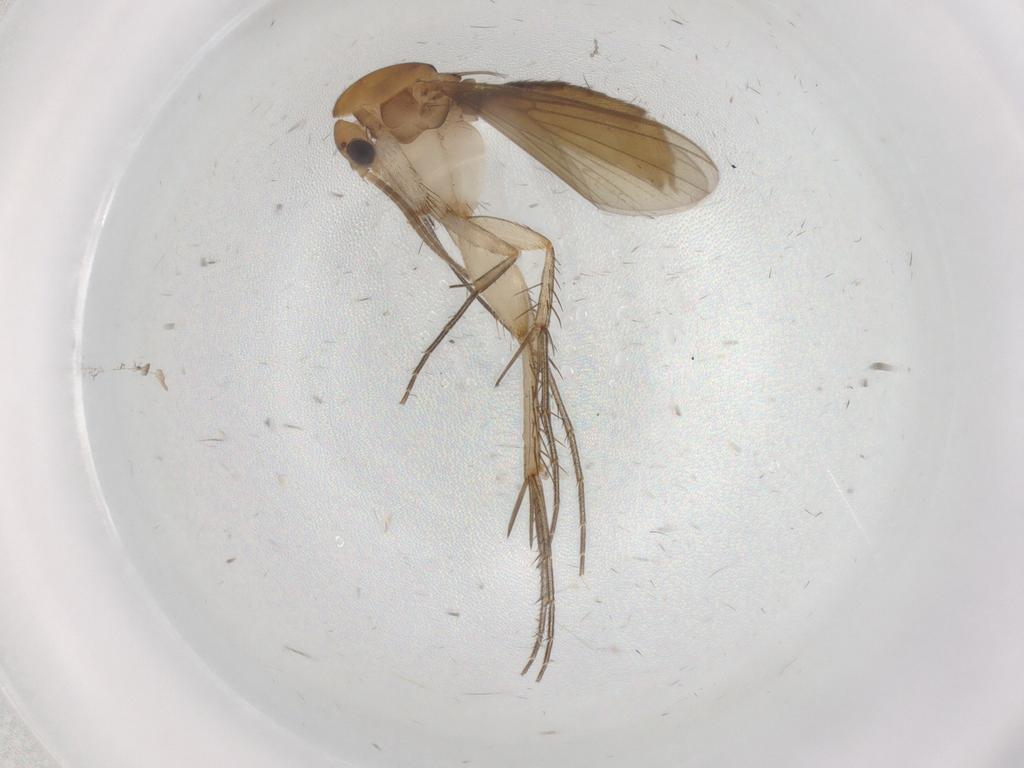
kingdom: Animalia
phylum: Arthropoda
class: Insecta
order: Diptera
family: Mycetophilidae
